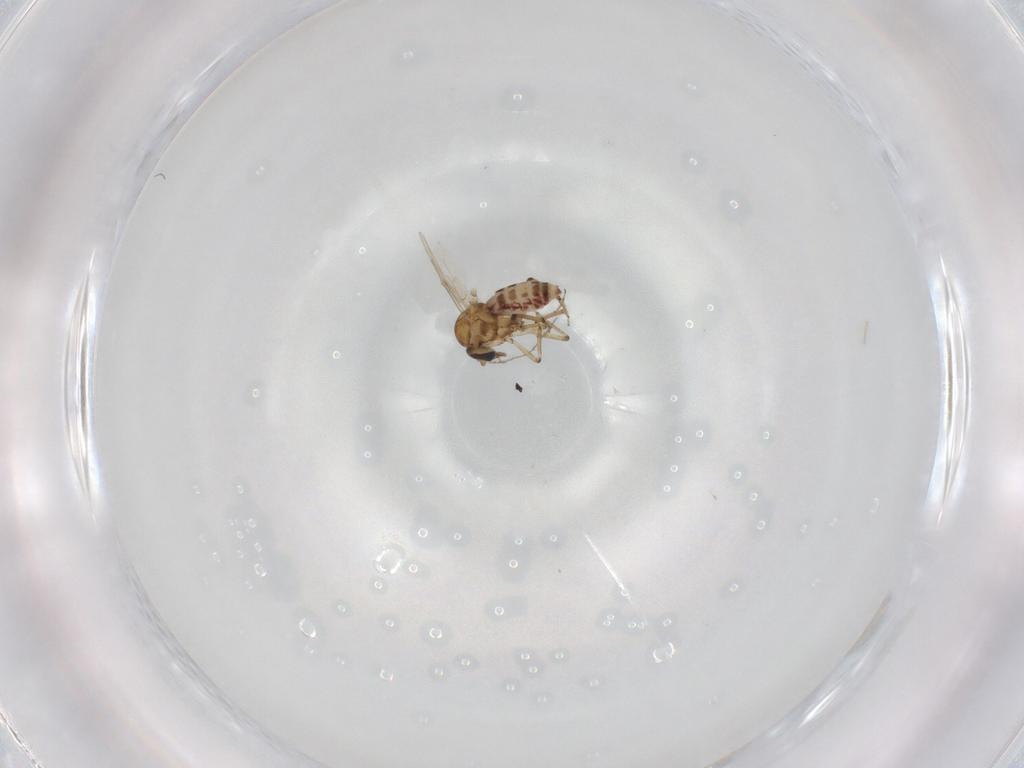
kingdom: Animalia
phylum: Arthropoda
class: Insecta
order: Diptera
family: Ceratopogonidae
